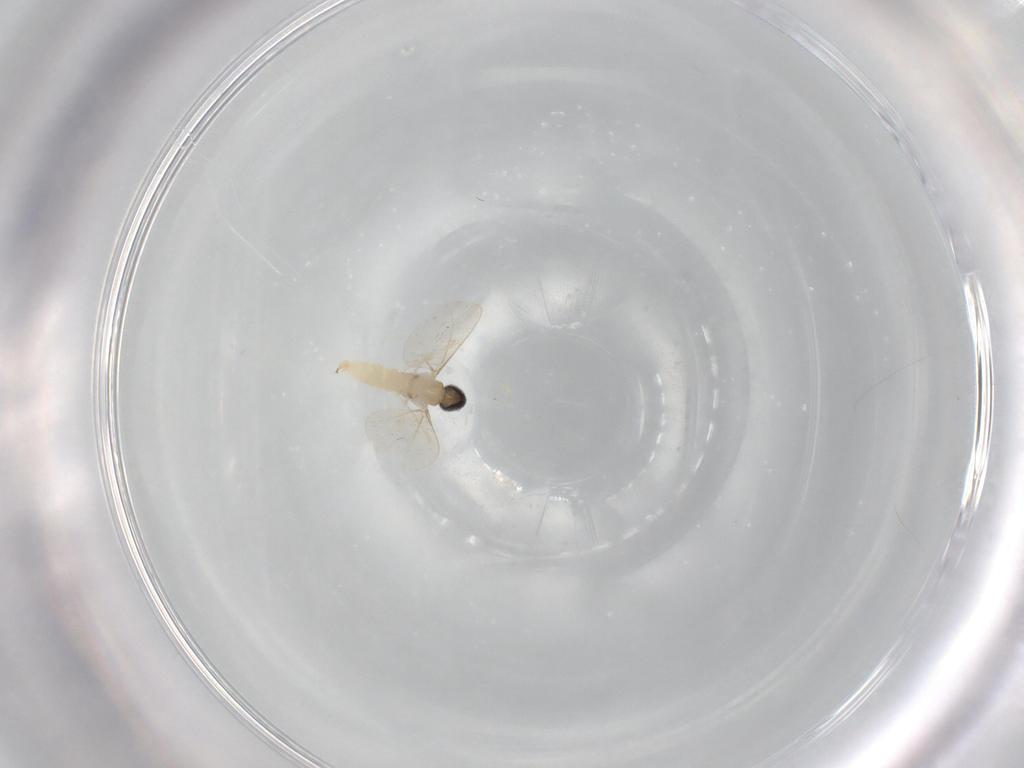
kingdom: Animalia
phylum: Arthropoda
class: Insecta
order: Diptera
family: Cecidomyiidae
